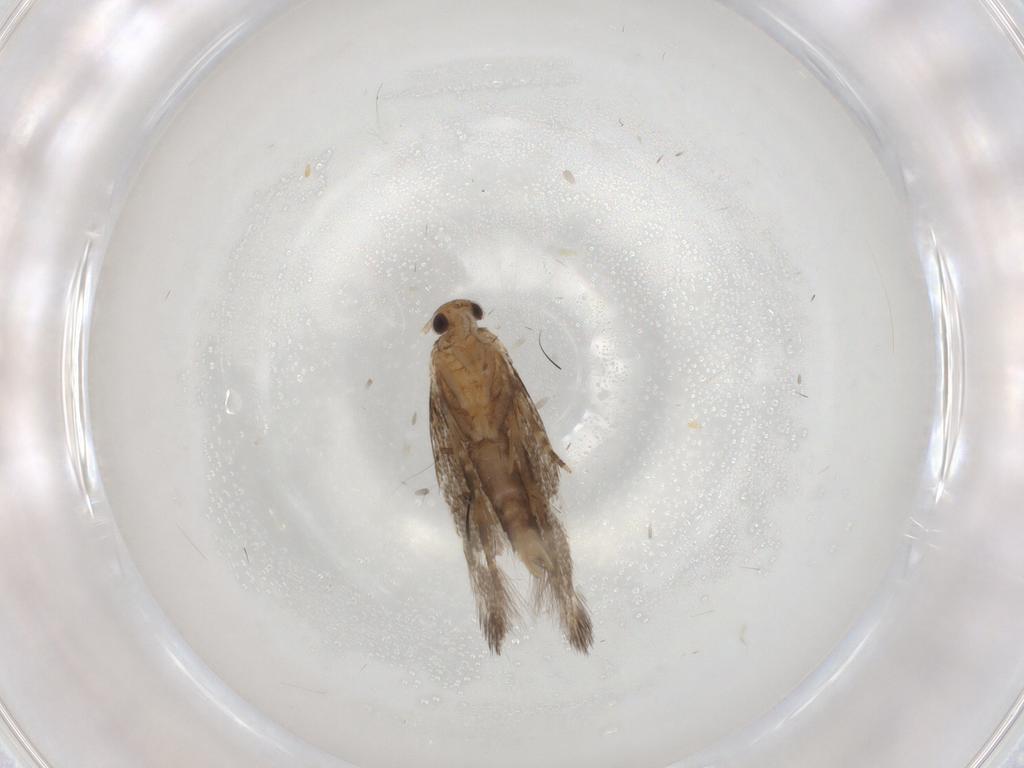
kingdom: Animalia
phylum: Arthropoda
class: Insecta
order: Lepidoptera
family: Elachistidae
